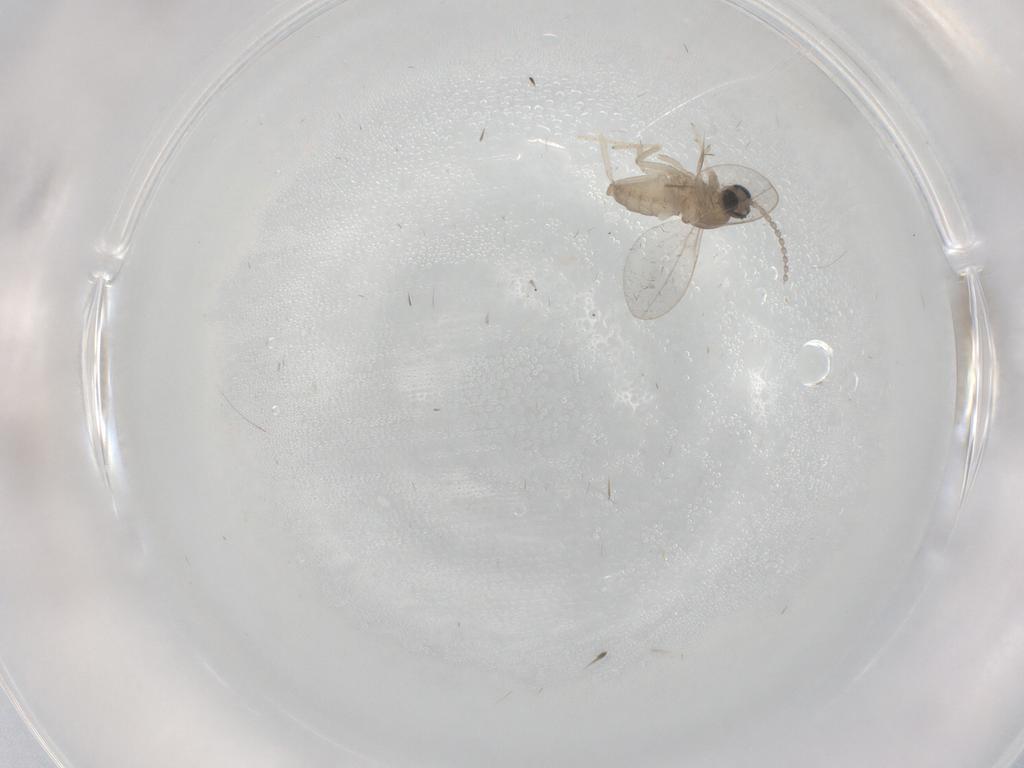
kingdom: Animalia
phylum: Arthropoda
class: Insecta
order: Diptera
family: Cecidomyiidae
